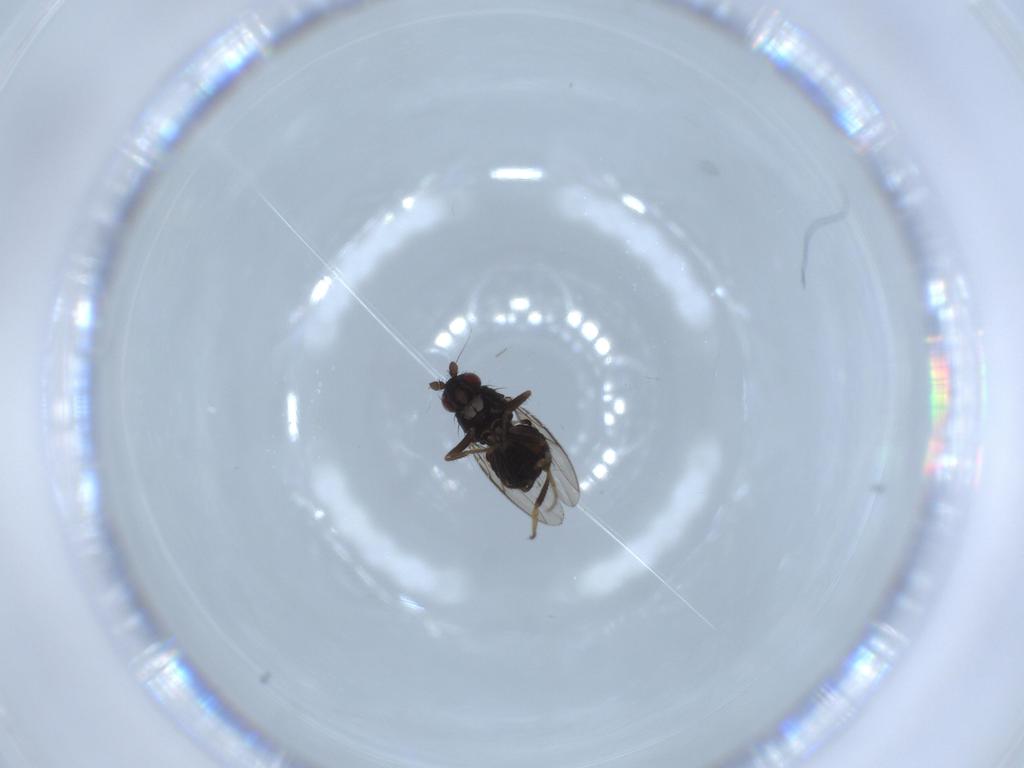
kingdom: Animalia
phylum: Arthropoda
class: Insecta
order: Diptera
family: Sphaeroceridae
